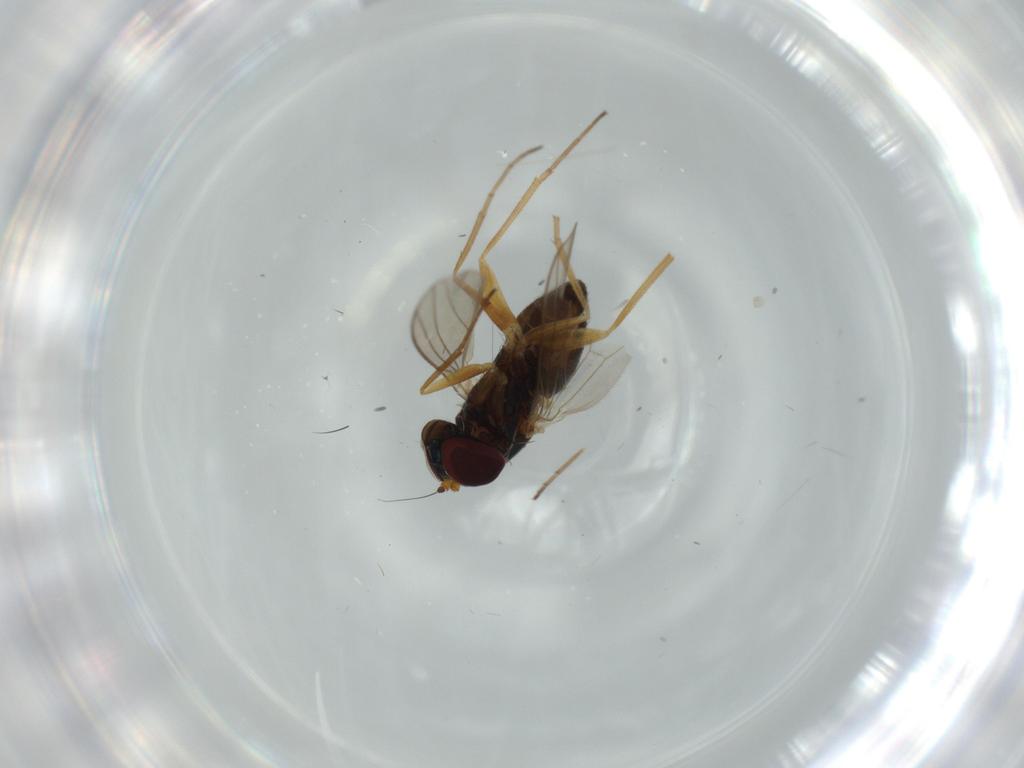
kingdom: Animalia
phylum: Arthropoda
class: Insecta
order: Diptera
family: Dolichopodidae
